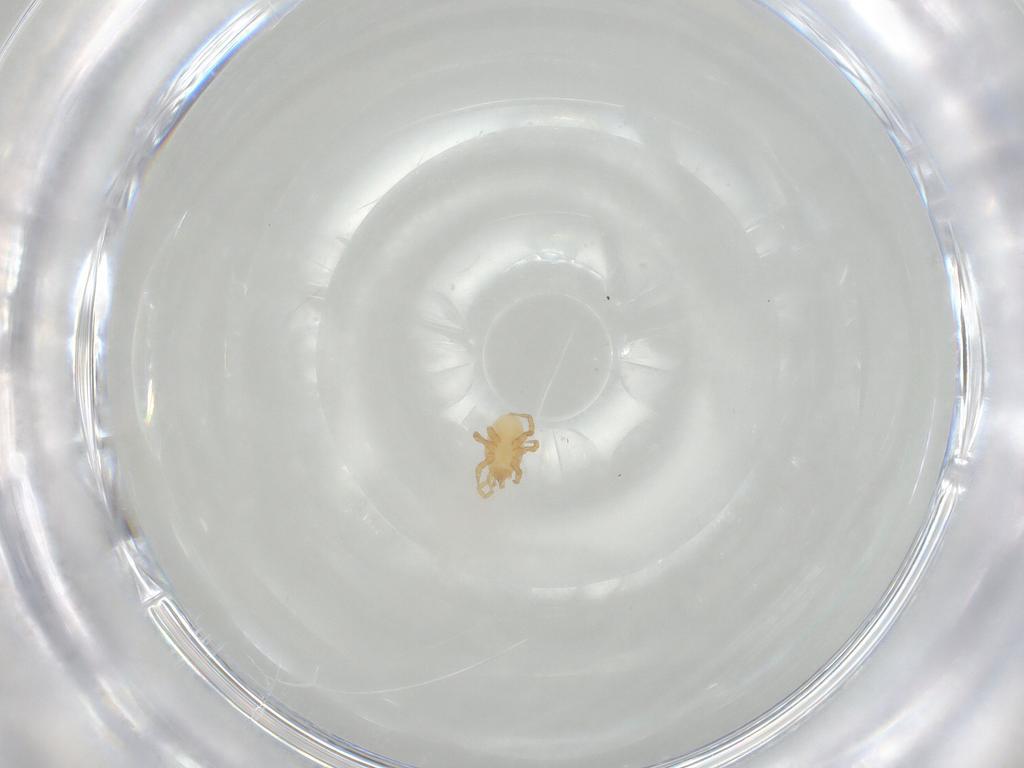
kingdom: Animalia
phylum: Arthropoda
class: Arachnida
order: Mesostigmata
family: Parasitidae
